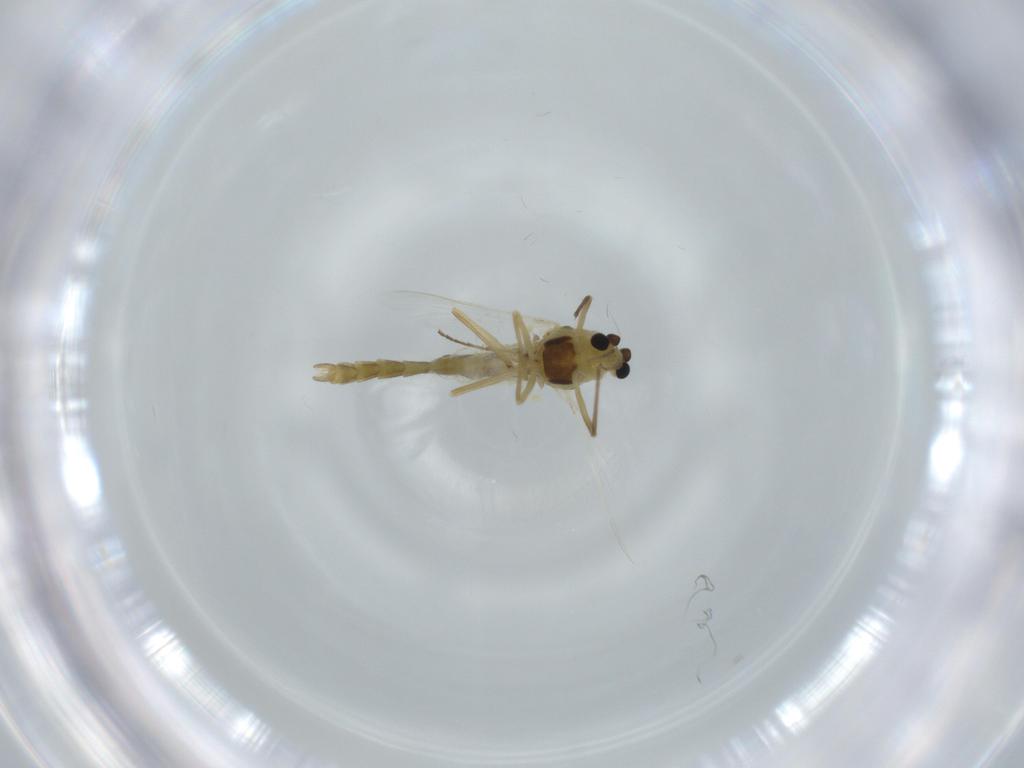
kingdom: Animalia
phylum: Arthropoda
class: Insecta
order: Diptera
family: Chironomidae
